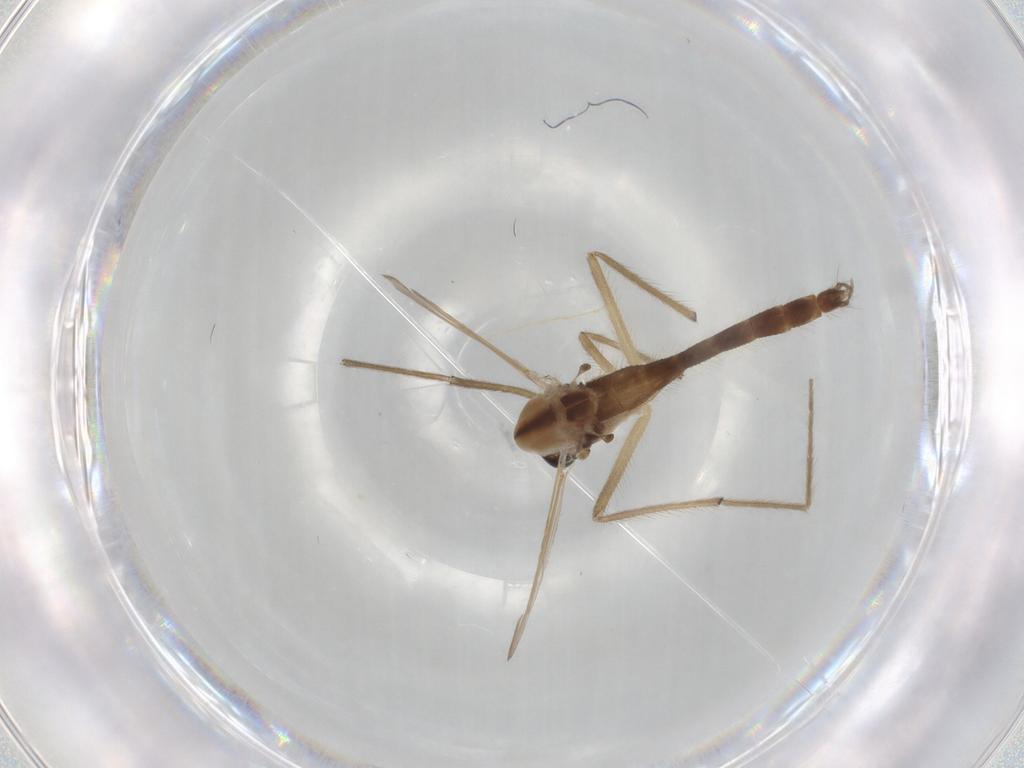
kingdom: Animalia
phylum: Arthropoda
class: Insecta
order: Diptera
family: Chironomidae
